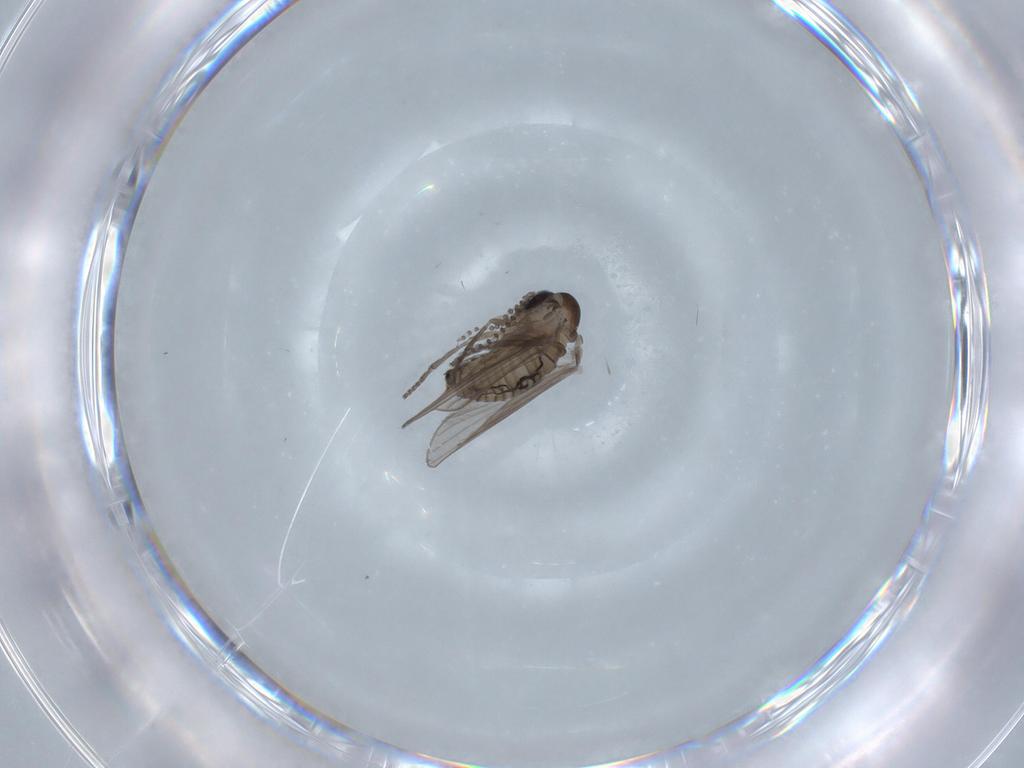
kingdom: Animalia
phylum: Arthropoda
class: Insecta
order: Diptera
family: Psychodidae
